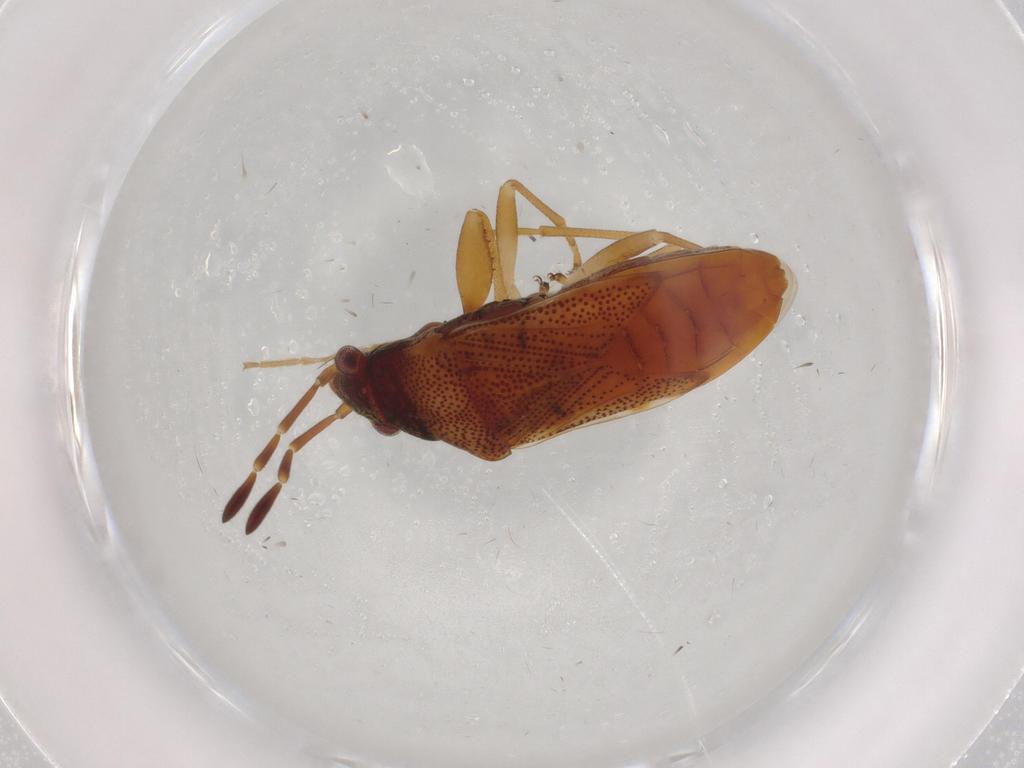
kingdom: Animalia
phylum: Arthropoda
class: Insecta
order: Hemiptera
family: Rhyparochromidae
